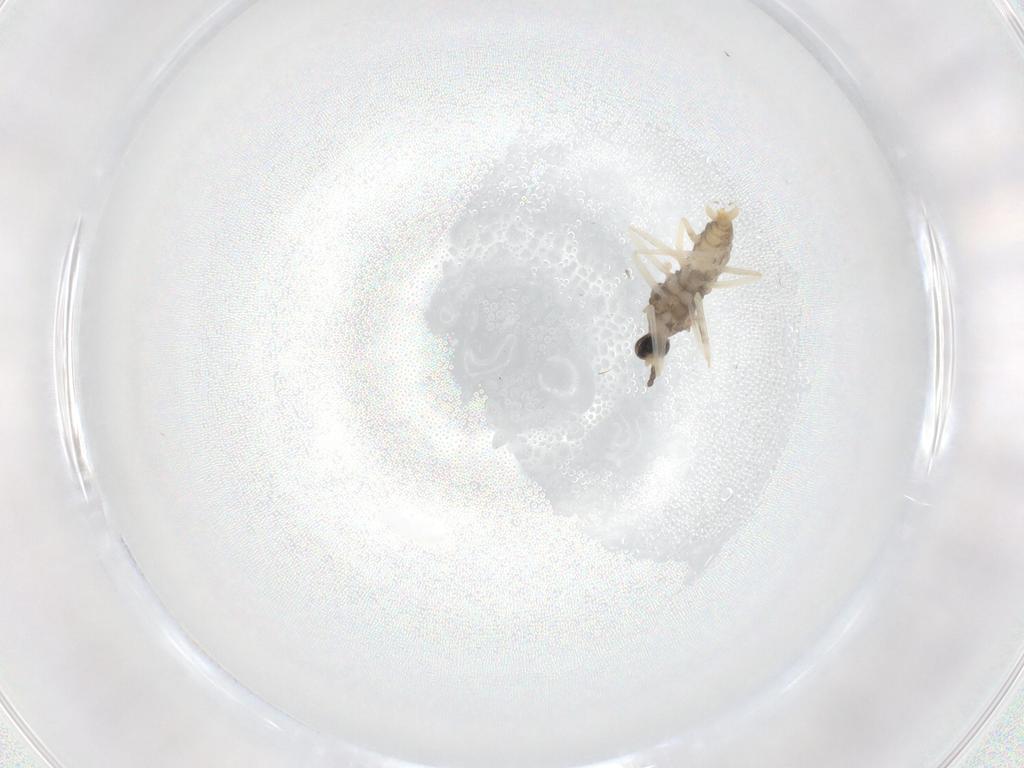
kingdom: Animalia
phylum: Arthropoda
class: Insecta
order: Diptera
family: Cecidomyiidae
